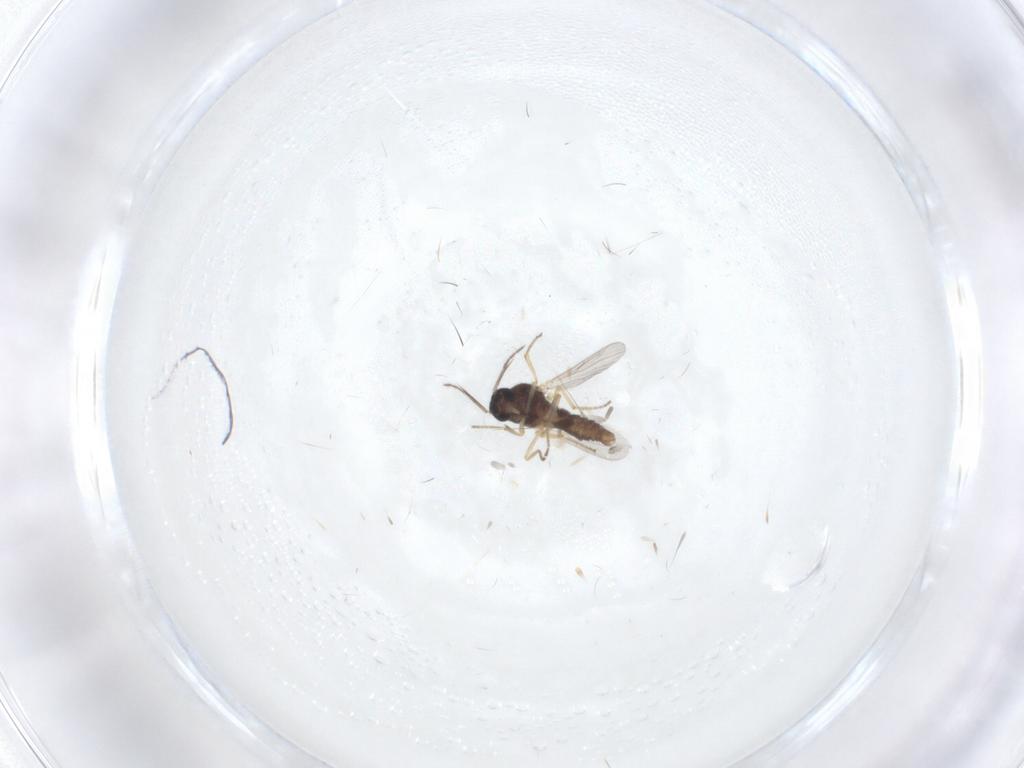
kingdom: Animalia
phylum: Arthropoda
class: Insecta
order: Diptera
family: Ceratopogonidae
